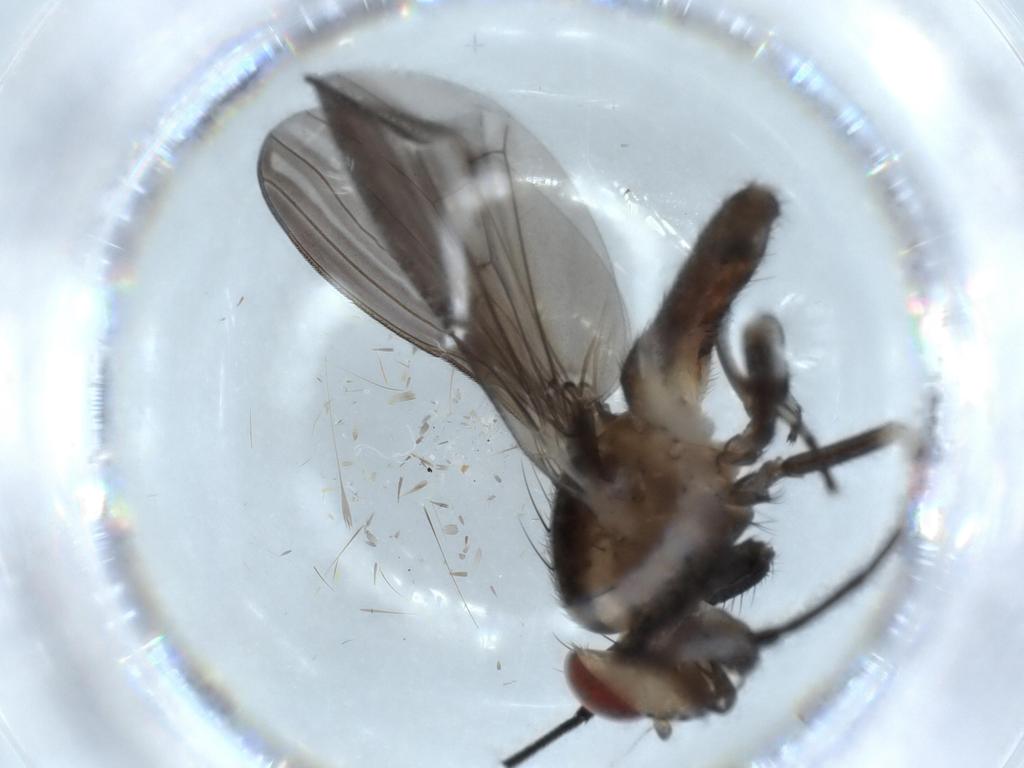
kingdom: Animalia
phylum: Arthropoda
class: Insecta
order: Diptera
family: Lauxaniidae
